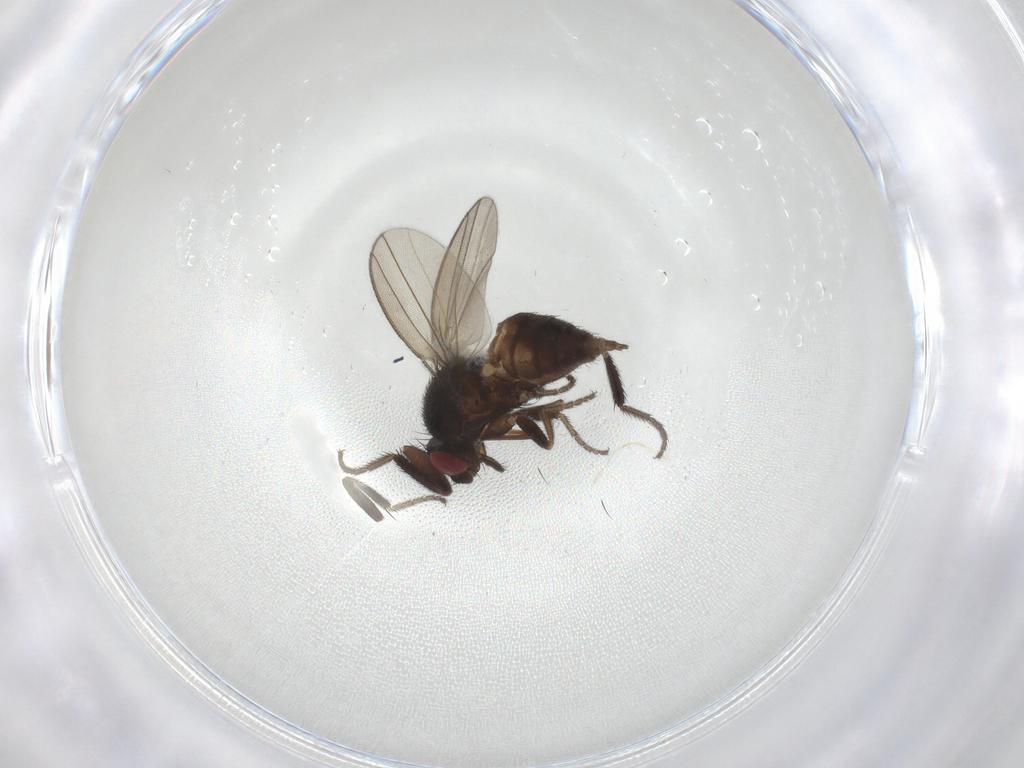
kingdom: Animalia
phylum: Arthropoda
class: Insecta
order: Diptera
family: Milichiidae
